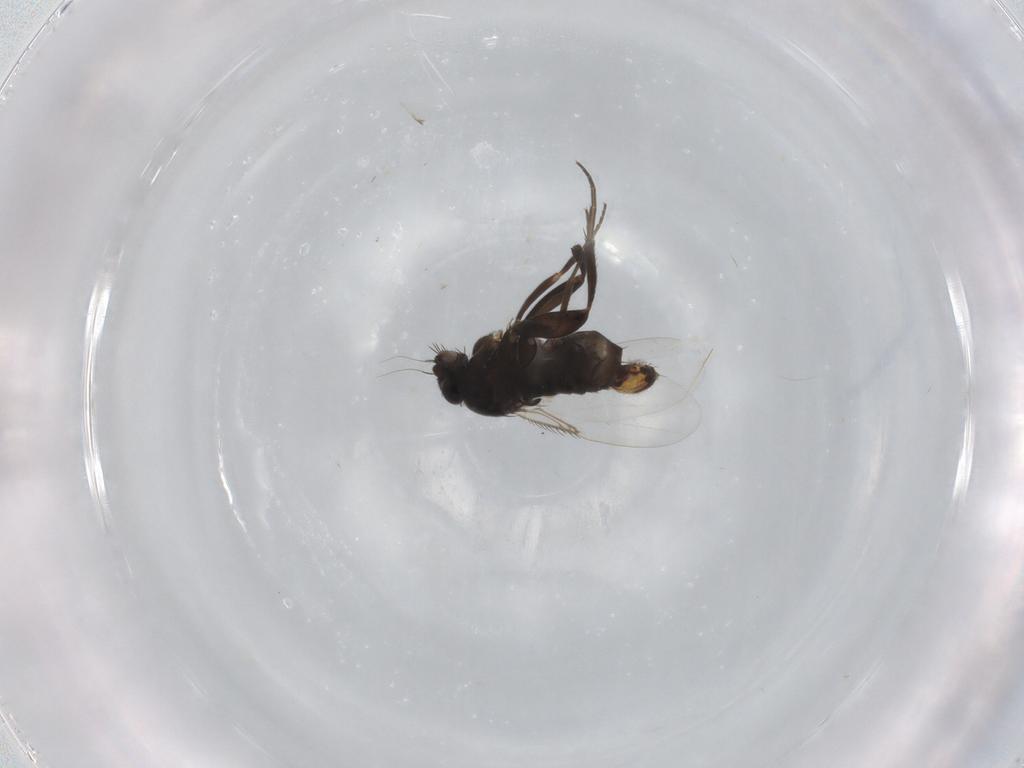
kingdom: Animalia
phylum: Arthropoda
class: Insecta
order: Diptera
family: Phoridae
